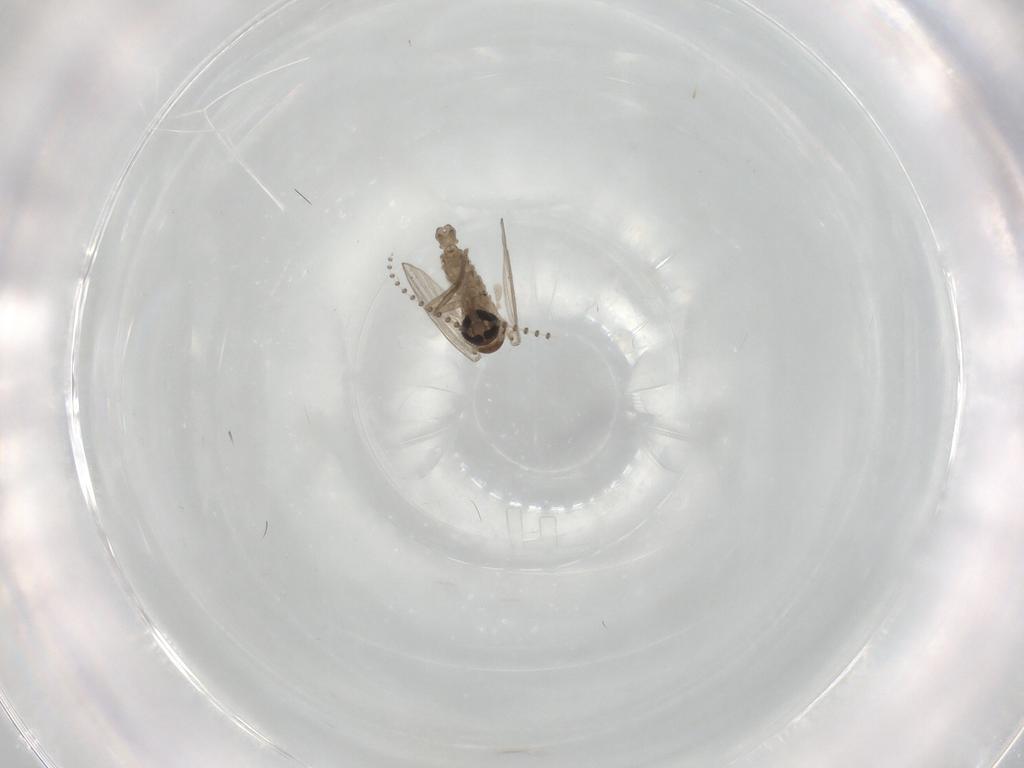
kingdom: Animalia
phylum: Arthropoda
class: Insecta
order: Diptera
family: Psychodidae
